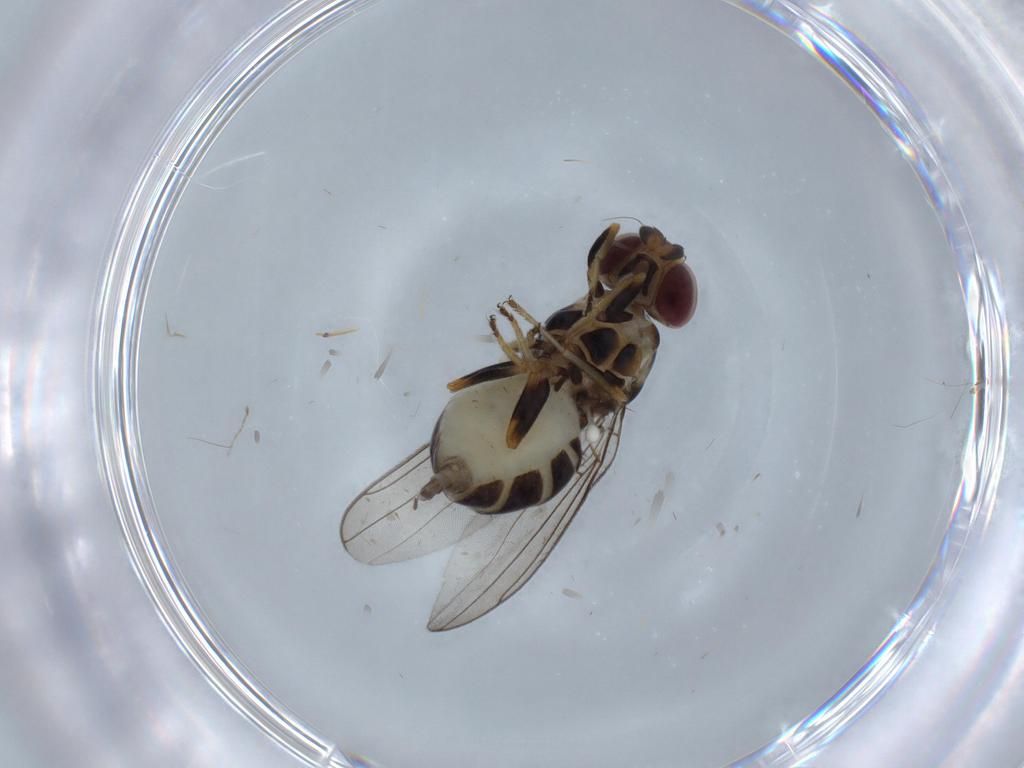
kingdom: Animalia
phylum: Arthropoda
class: Insecta
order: Diptera
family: Chloropidae
